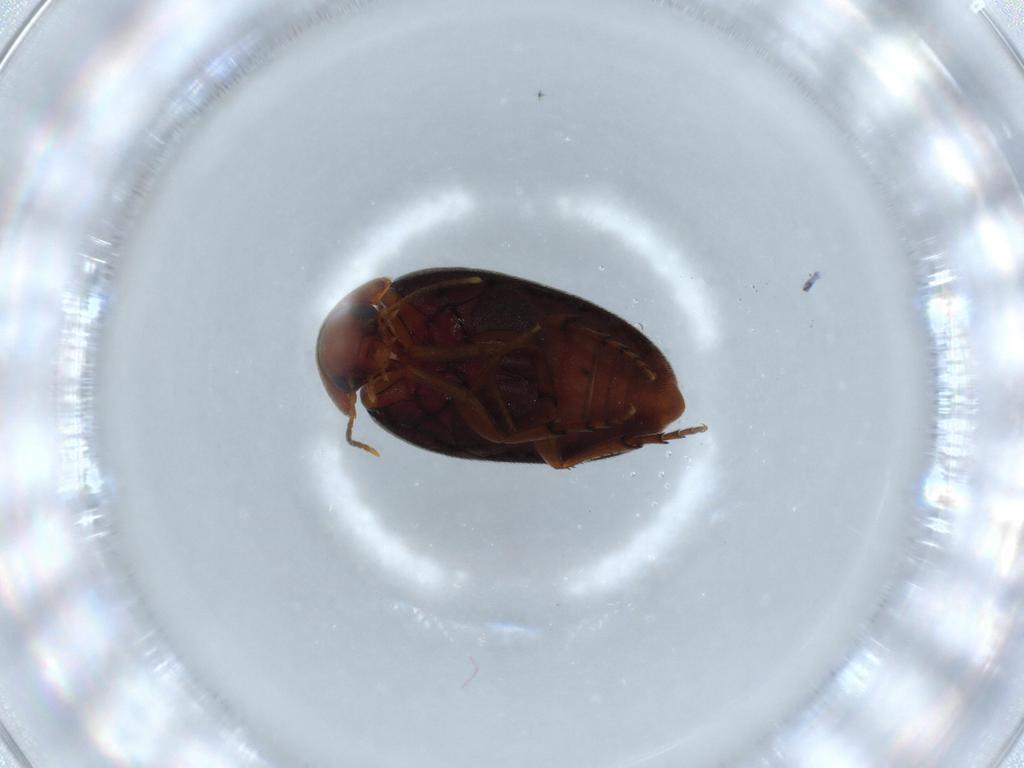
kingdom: Animalia
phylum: Arthropoda
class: Insecta
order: Coleoptera
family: Eucinetidae
